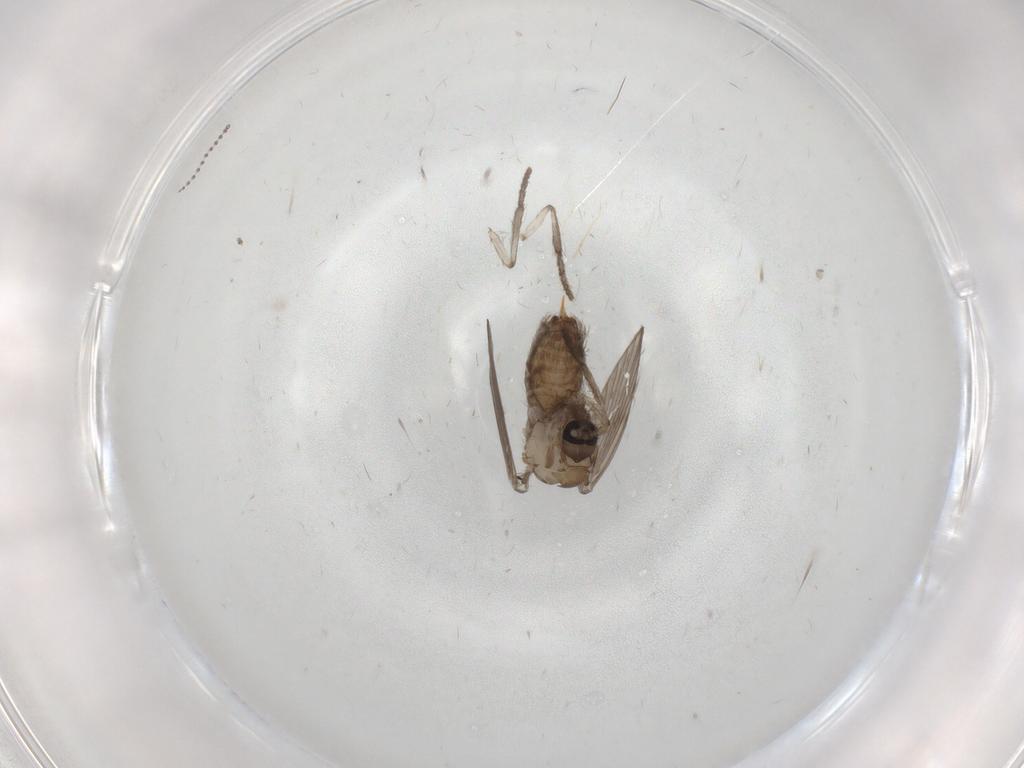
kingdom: Animalia
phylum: Arthropoda
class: Insecta
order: Diptera
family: Psychodidae
